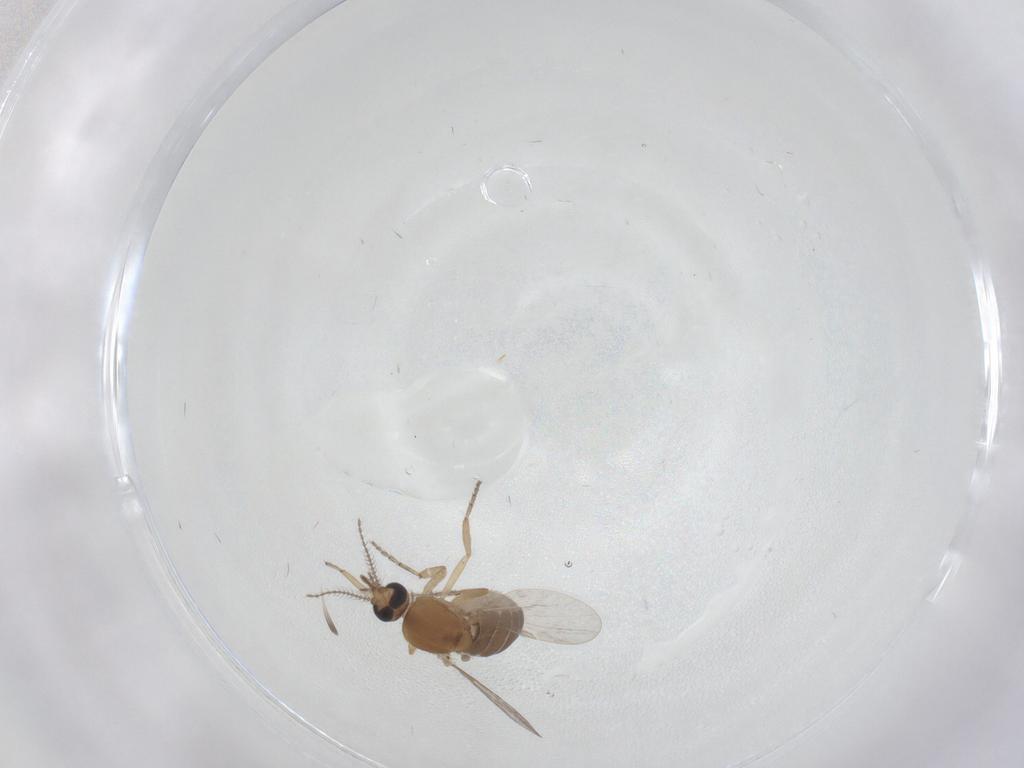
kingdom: Animalia
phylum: Arthropoda
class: Insecta
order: Diptera
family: Ceratopogonidae
